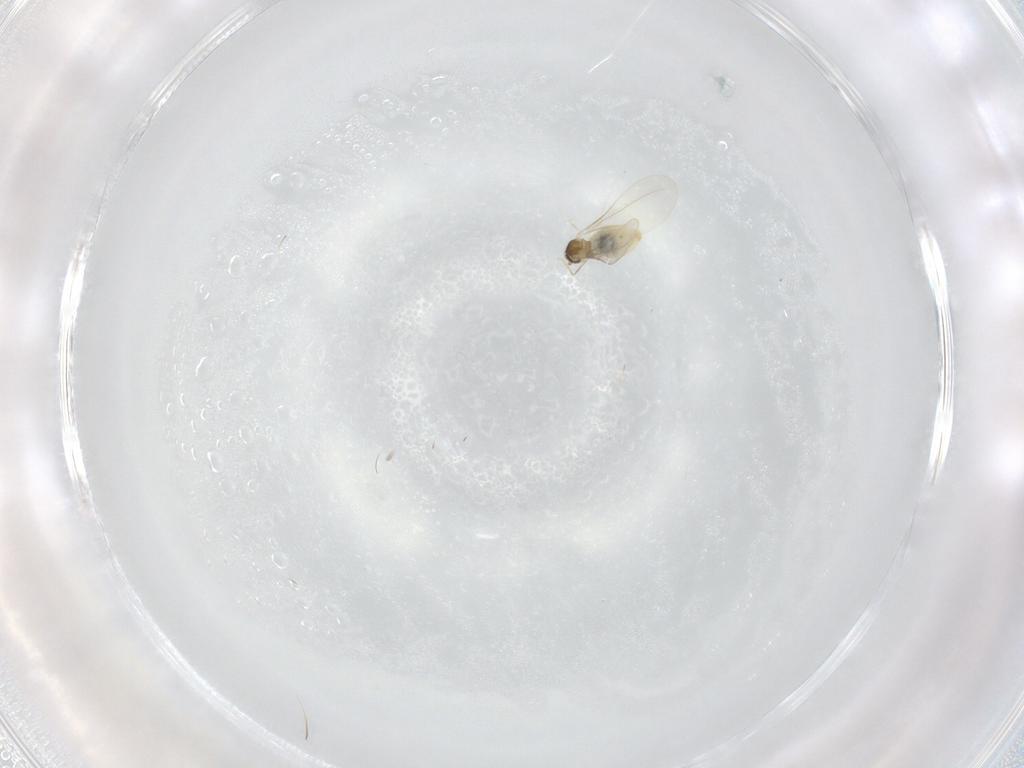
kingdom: Animalia
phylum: Arthropoda
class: Insecta
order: Diptera
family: Cecidomyiidae
